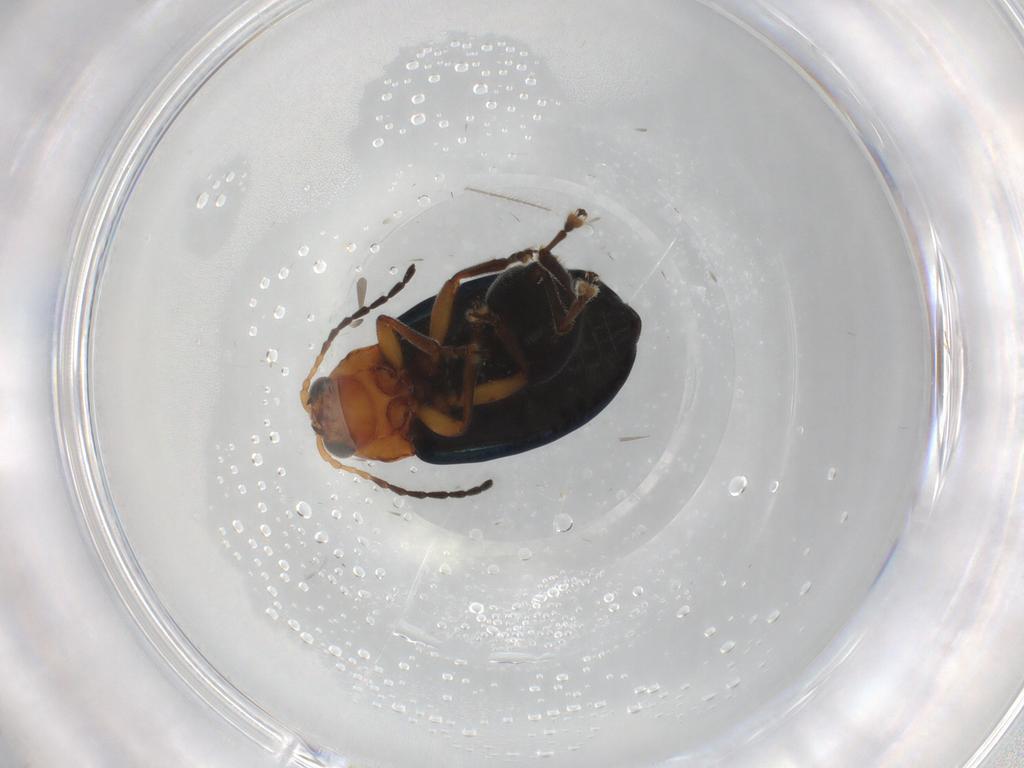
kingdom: Animalia
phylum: Arthropoda
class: Insecta
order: Coleoptera
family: Chrysomelidae
